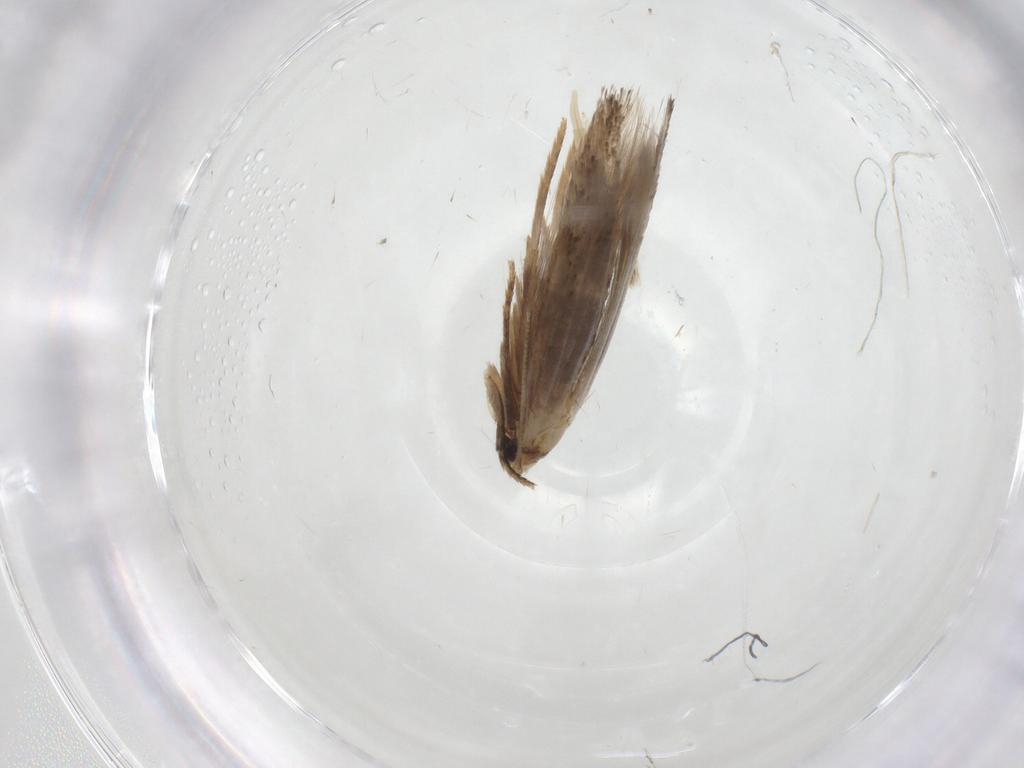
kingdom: Animalia
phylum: Arthropoda
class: Insecta
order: Lepidoptera
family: Tineidae
